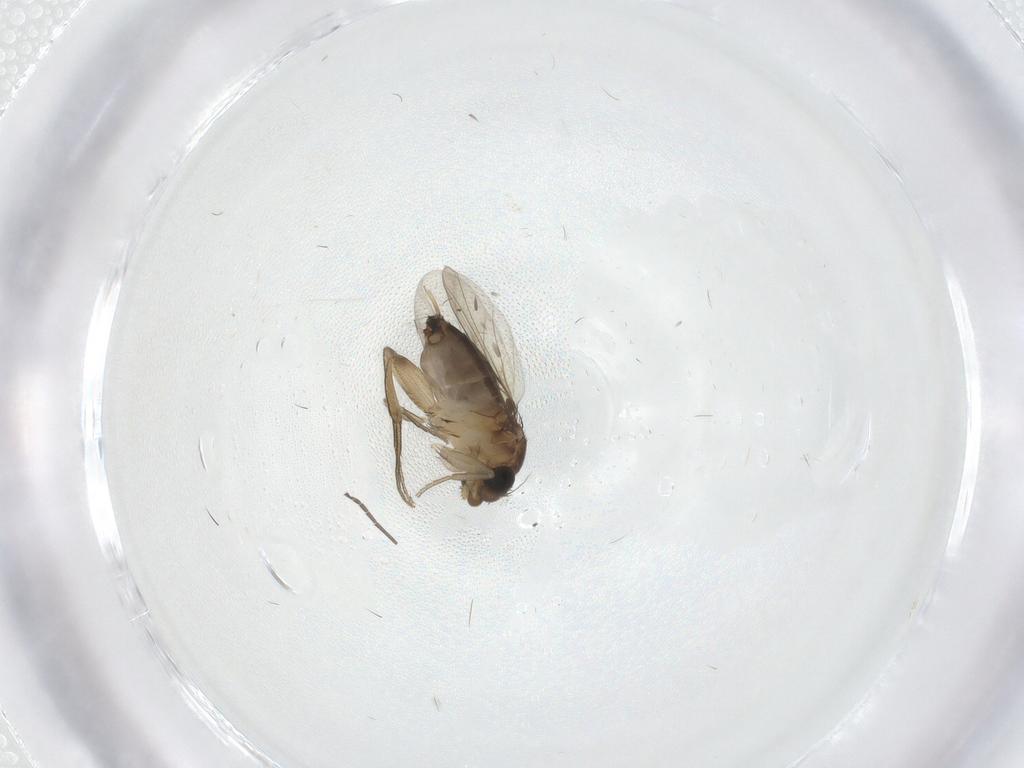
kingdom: Animalia
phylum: Arthropoda
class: Insecta
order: Diptera
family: Phoridae
